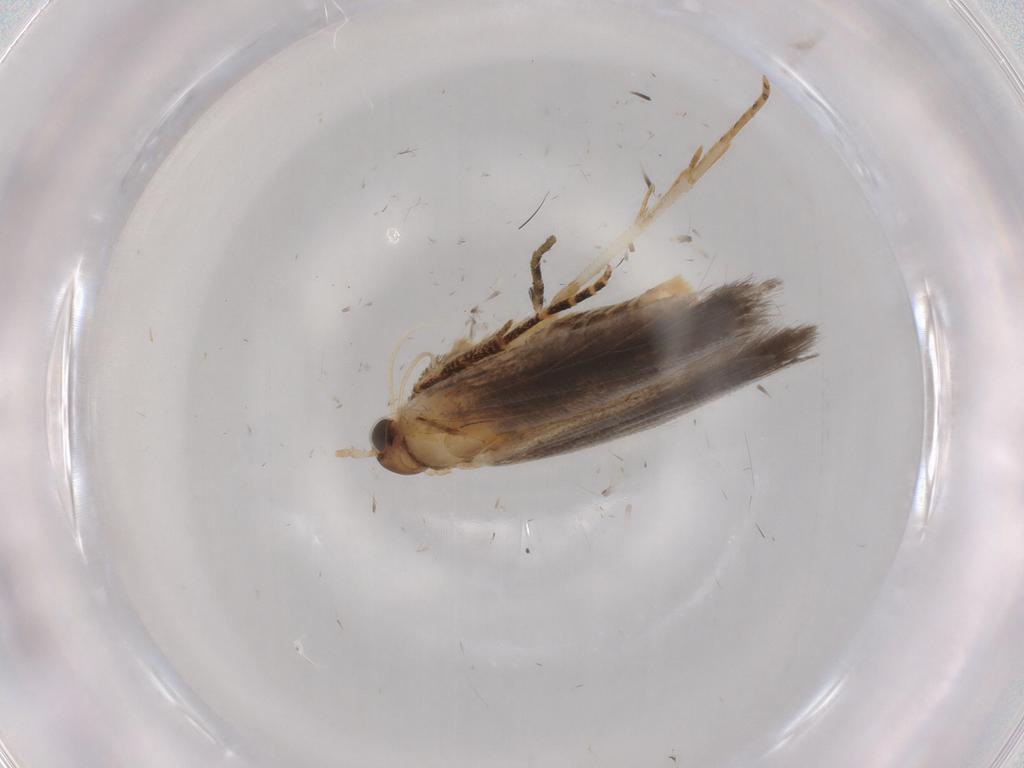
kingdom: Animalia
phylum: Arthropoda
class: Insecta
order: Lepidoptera
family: Gelechiidae
